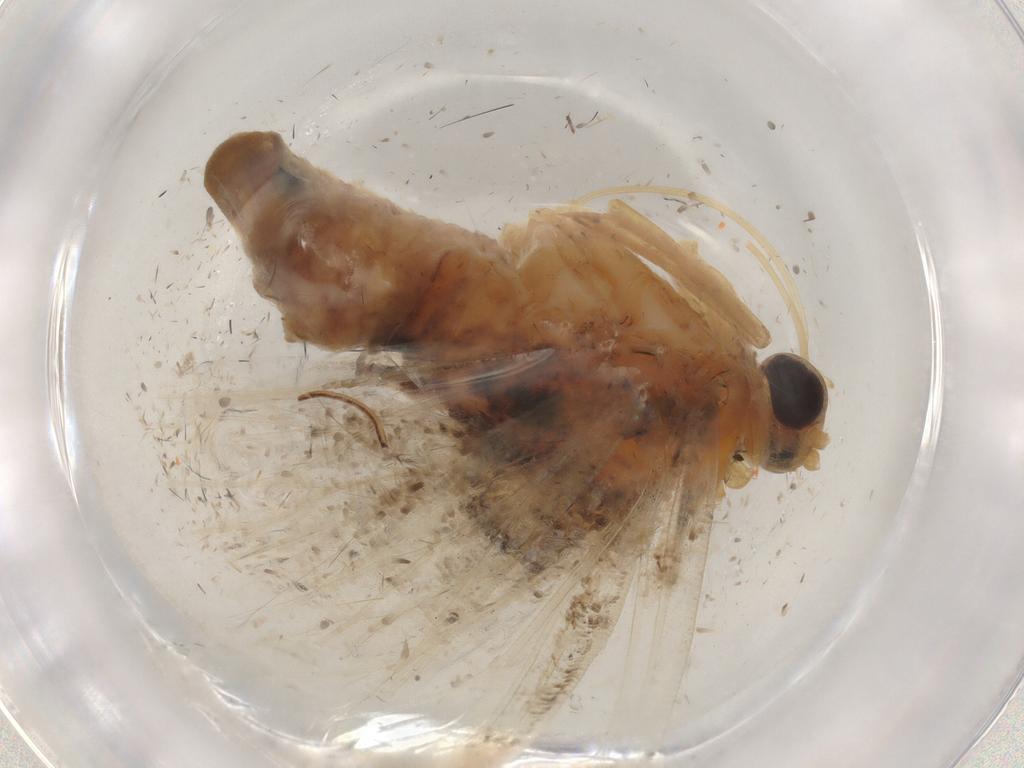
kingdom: Animalia
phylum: Arthropoda
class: Insecta
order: Lepidoptera
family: Geometridae
